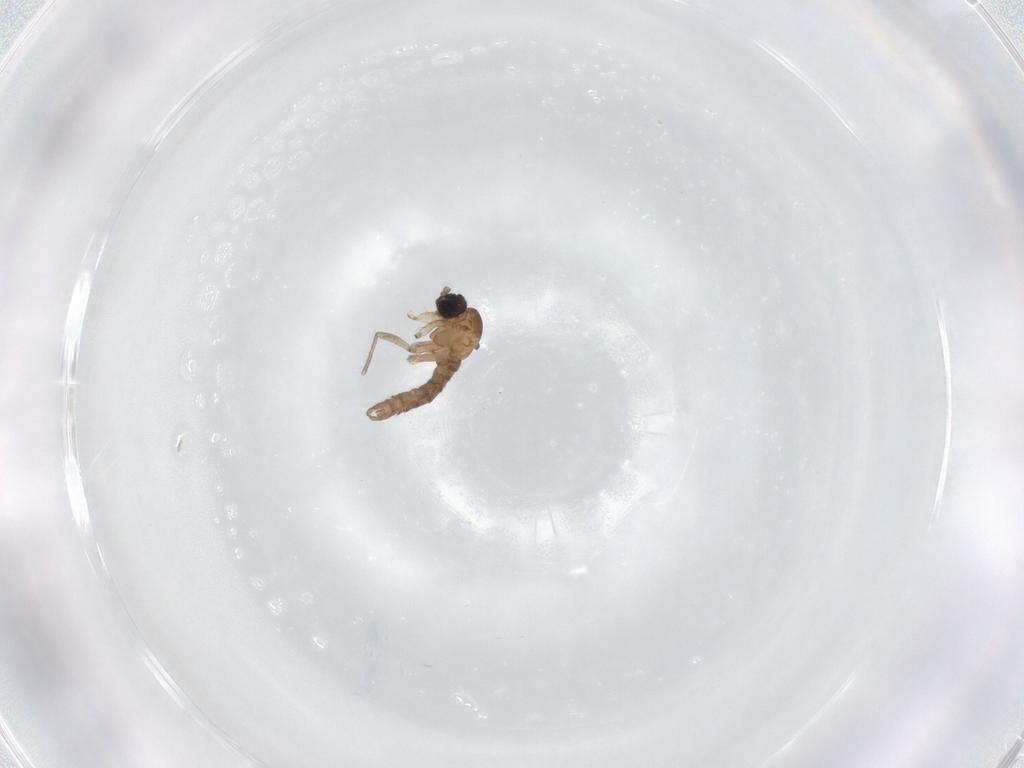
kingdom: Animalia
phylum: Arthropoda
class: Insecta
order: Diptera
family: Sciaridae
